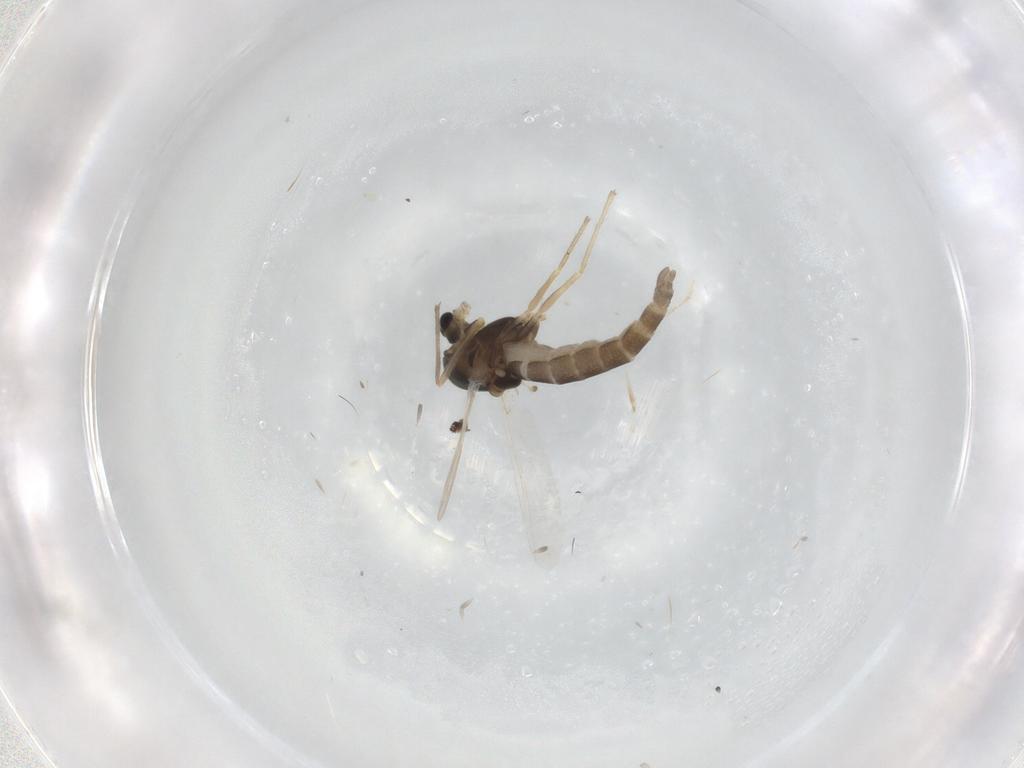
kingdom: Animalia
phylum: Arthropoda
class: Insecta
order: Diptera
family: Chironomidae
